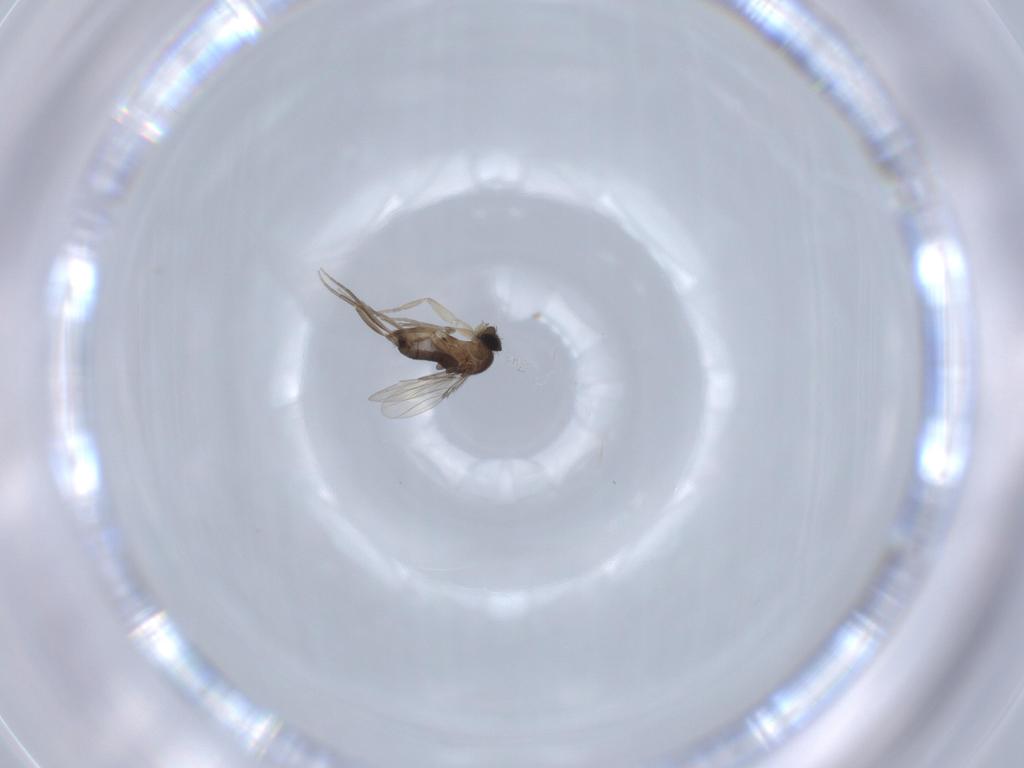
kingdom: Animalia
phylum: Arthropoda
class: Insecta
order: Diptera
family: Phoridae
